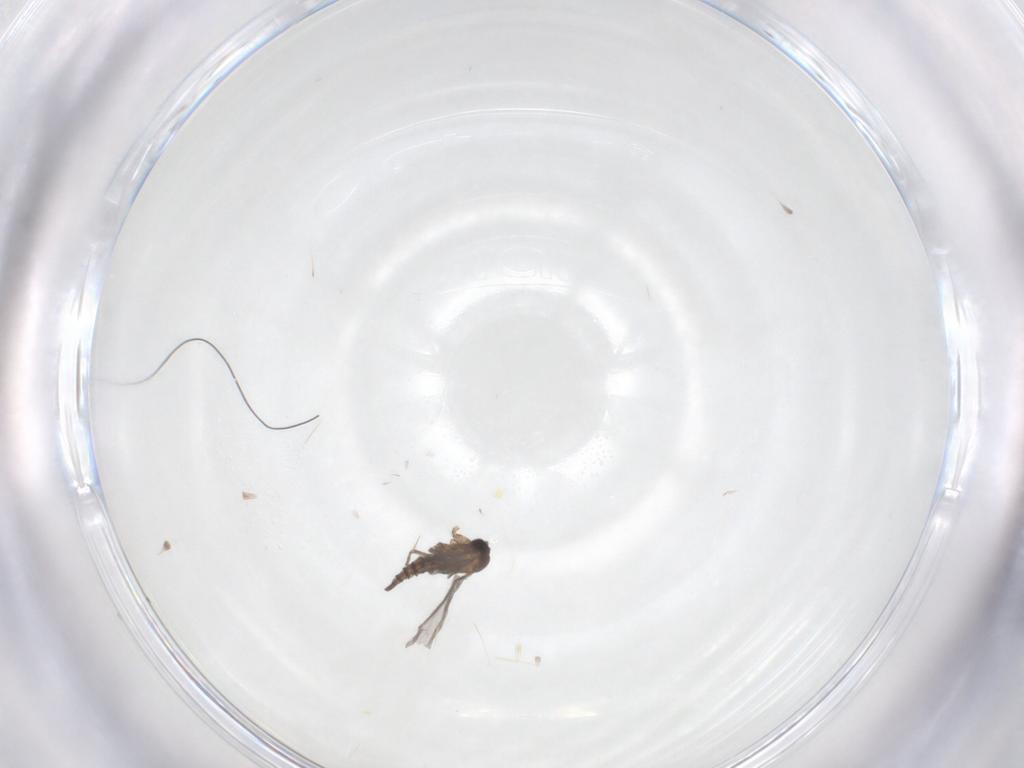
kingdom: Animalia
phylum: Arthropoda
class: Insecta
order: Diptera
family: Sciaridae
